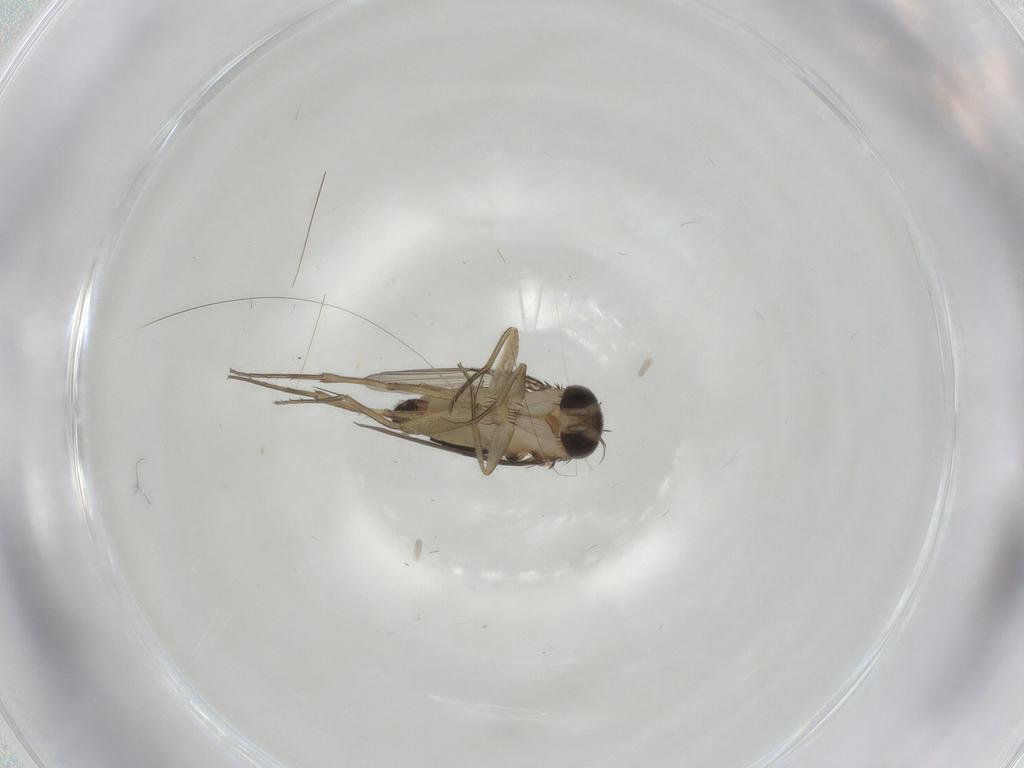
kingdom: Animalia
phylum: Arthropoda
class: Insecta
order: Diptera
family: Cecidomyiidae
